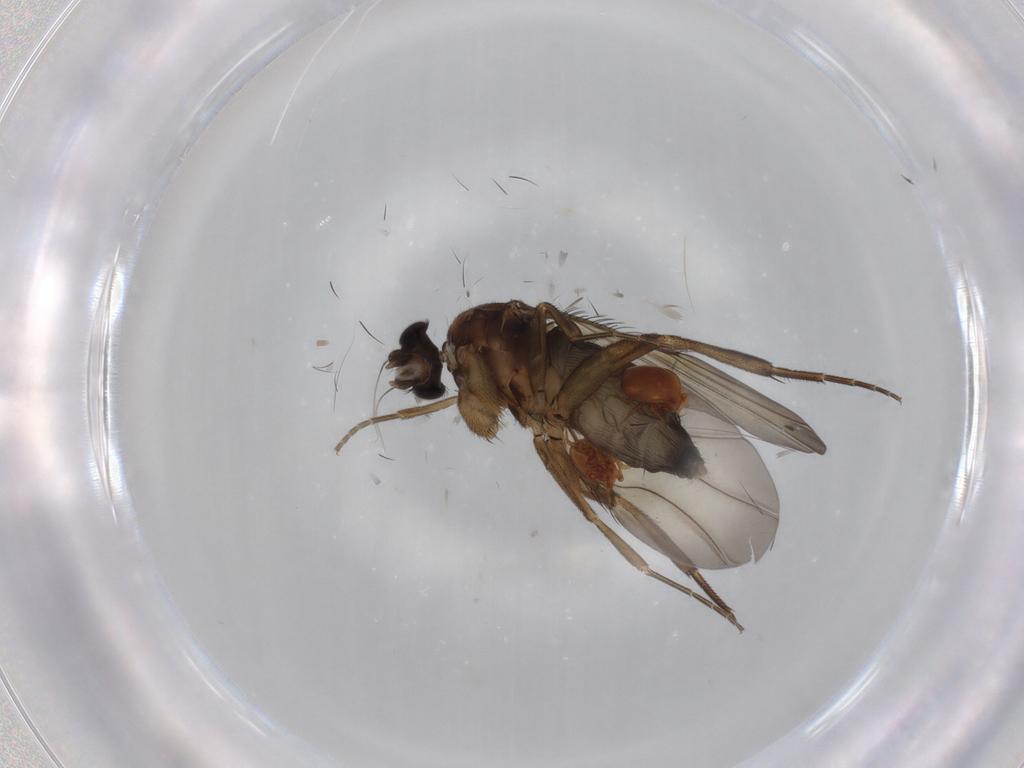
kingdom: Animalia
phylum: Arthropoda
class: Insecta
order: Diptera
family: Phoridae
